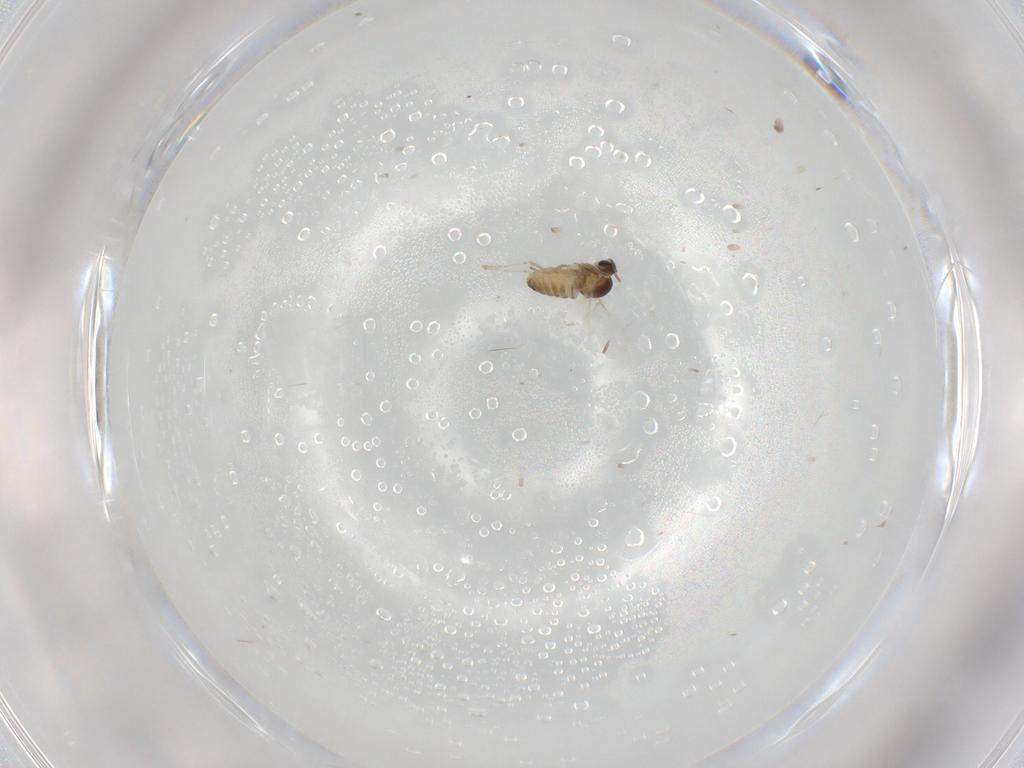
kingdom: Animalia
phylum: Arthropoda
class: Insecta
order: Diptera
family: Cecidomyiidae
